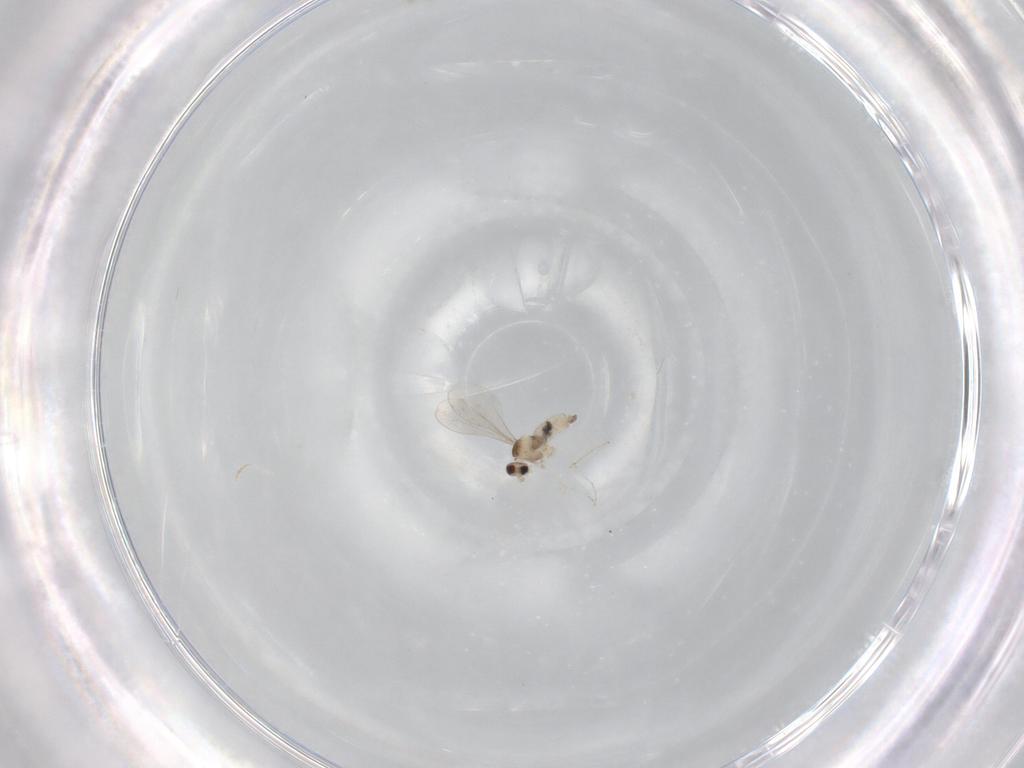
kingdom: Animalia
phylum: Arthropoda
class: Insecta
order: Diptera
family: Cecidomyiidae
